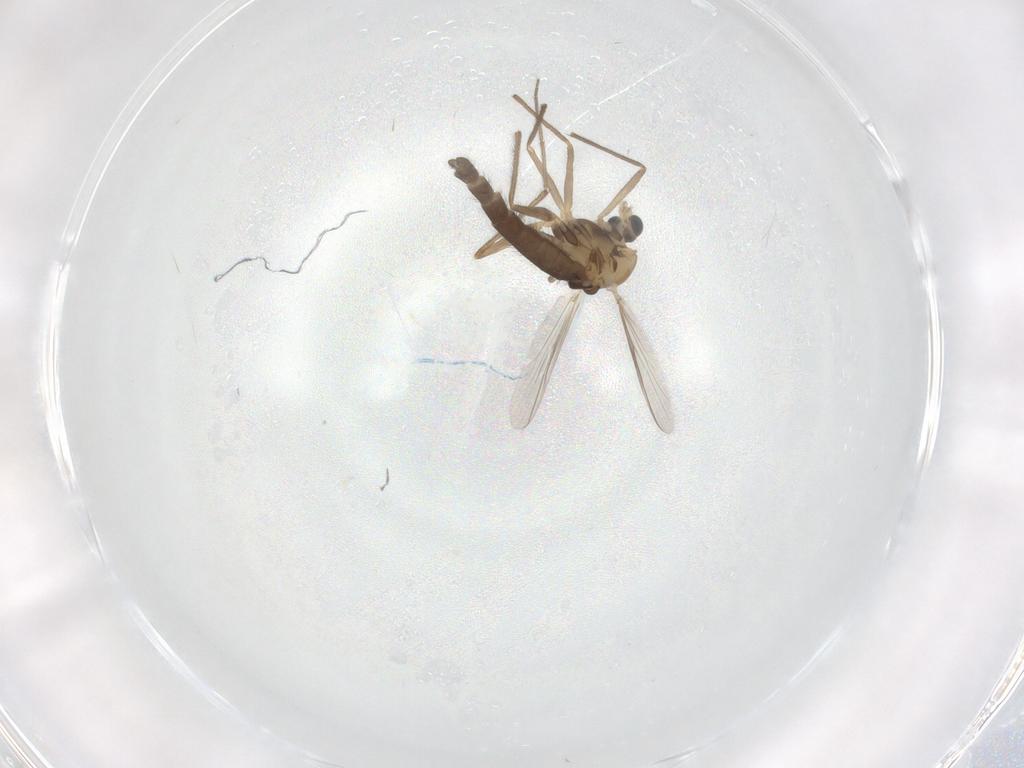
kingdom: Animalia
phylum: Arthropoda
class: Insecta
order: Diptera
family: Chironomidae
